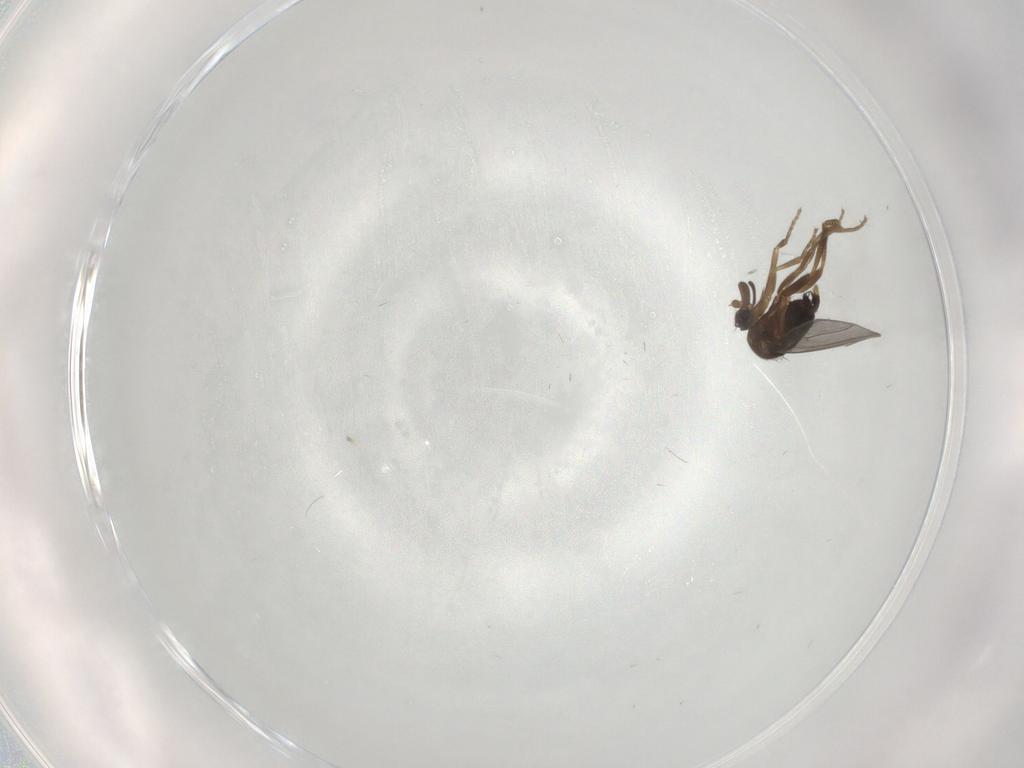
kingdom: Animalia
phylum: Arthropoda
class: Insecta
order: Diptera
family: Phoridae
